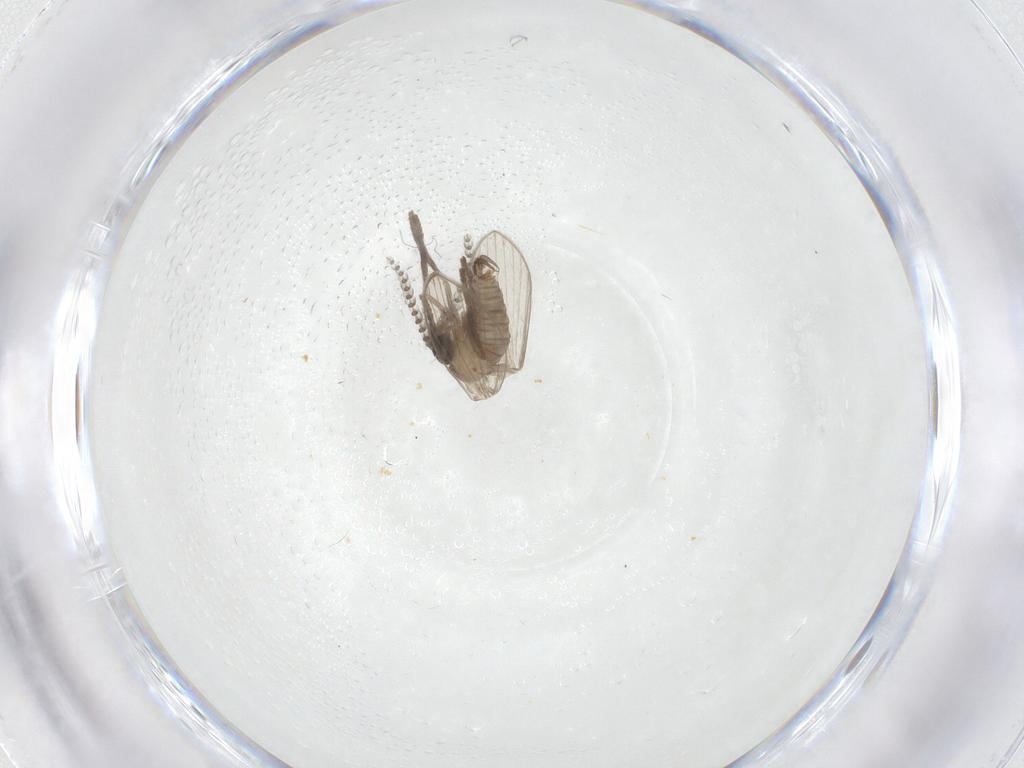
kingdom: Animalia
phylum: Arthropoda
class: Insecta
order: Diptera
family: Psychodidae
